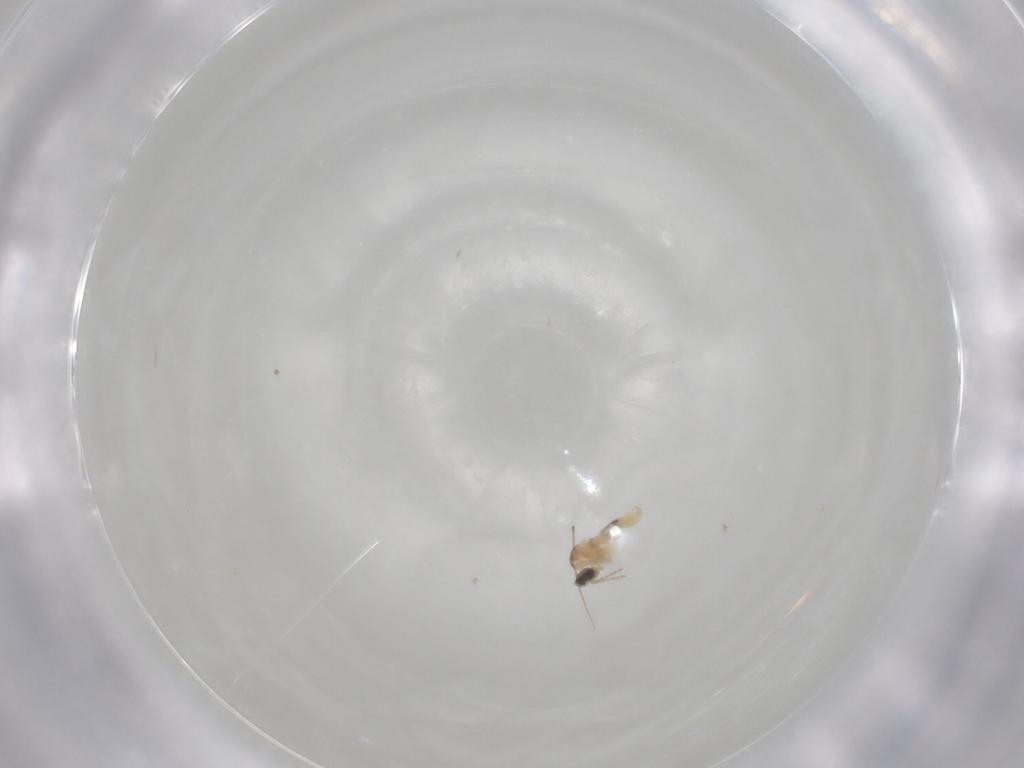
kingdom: Animalia
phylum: Arthropoda
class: Insecta
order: Diptera
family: Cecidomyiidae
